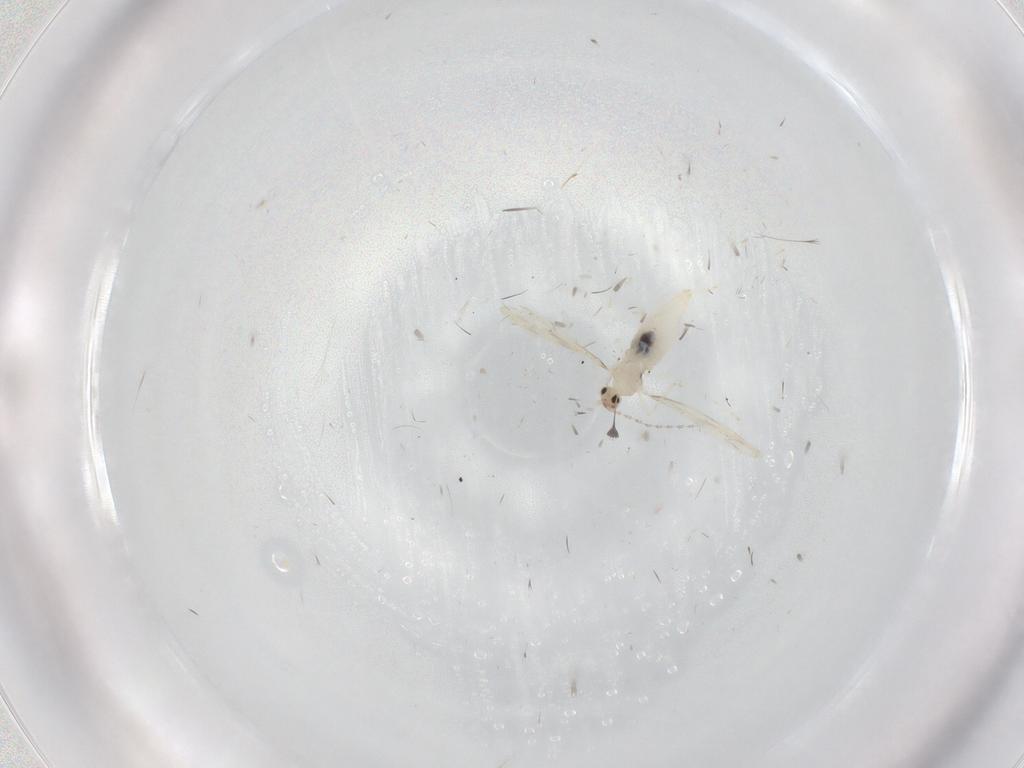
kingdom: Animalia
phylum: Arthropoda
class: Insecta
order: Diptera
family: Cecidomyiidae
